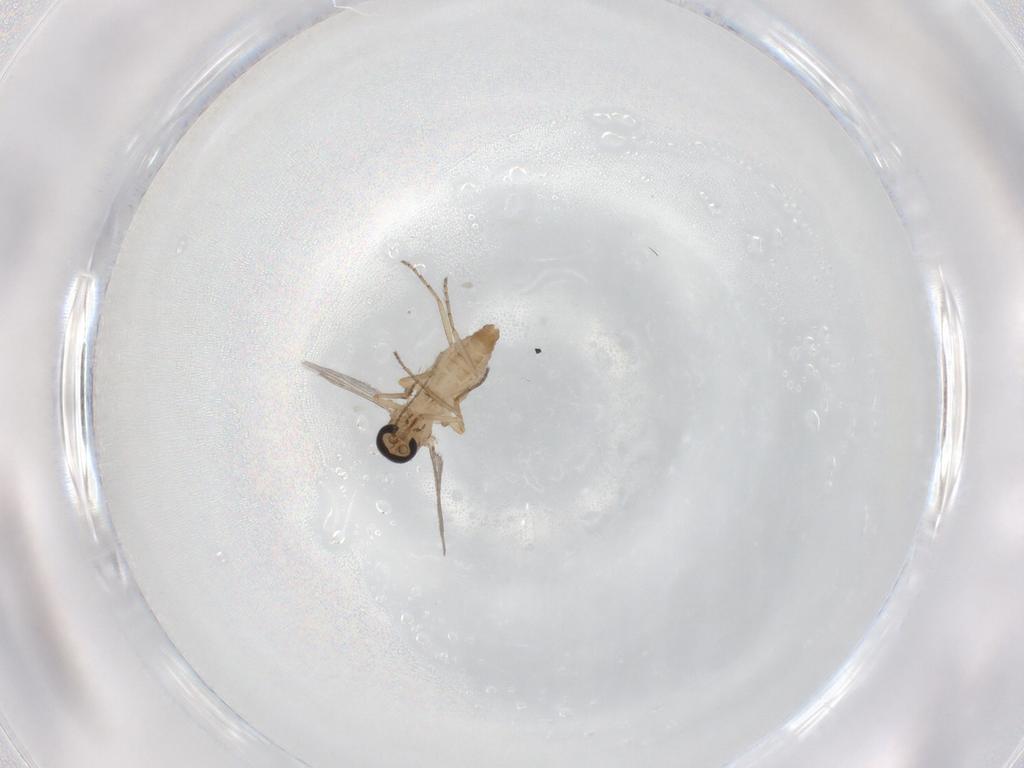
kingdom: Animalia
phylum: Arthropoda
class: Insecta
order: Diptera
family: Ceratopogonidae
